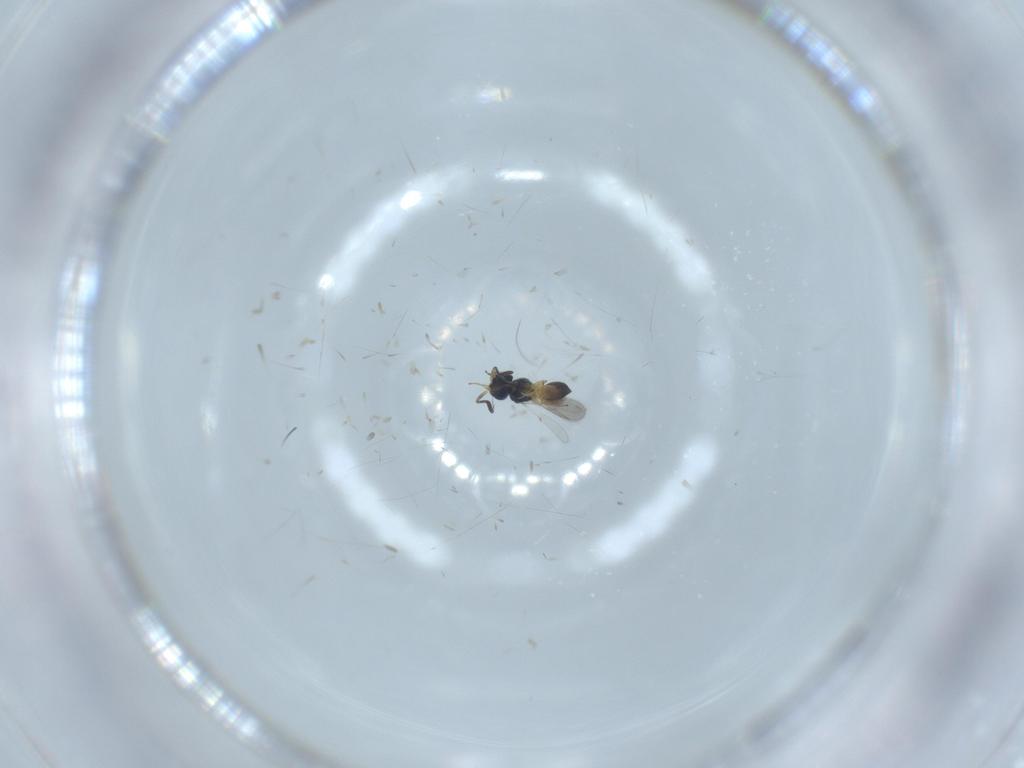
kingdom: Animalia
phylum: Arthropoda
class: Insecta
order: Hymenoptera
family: Scelionidae
